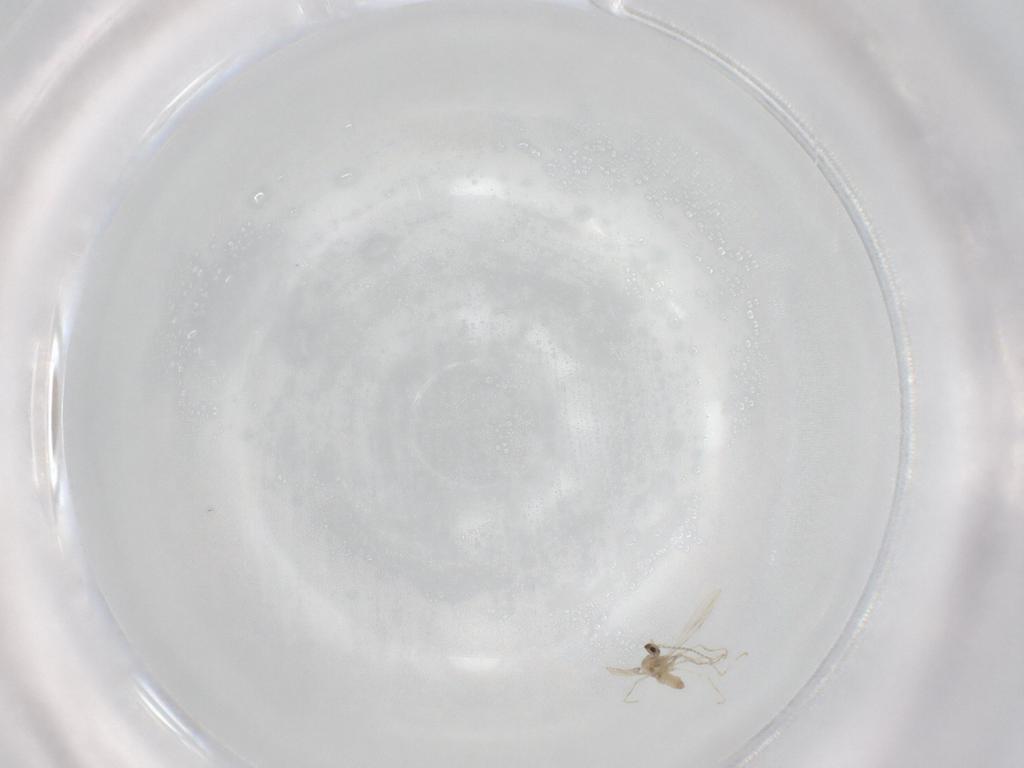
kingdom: Animalia
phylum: Arthropoda
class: Insecta
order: Diptera
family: Cecidomyiidae
